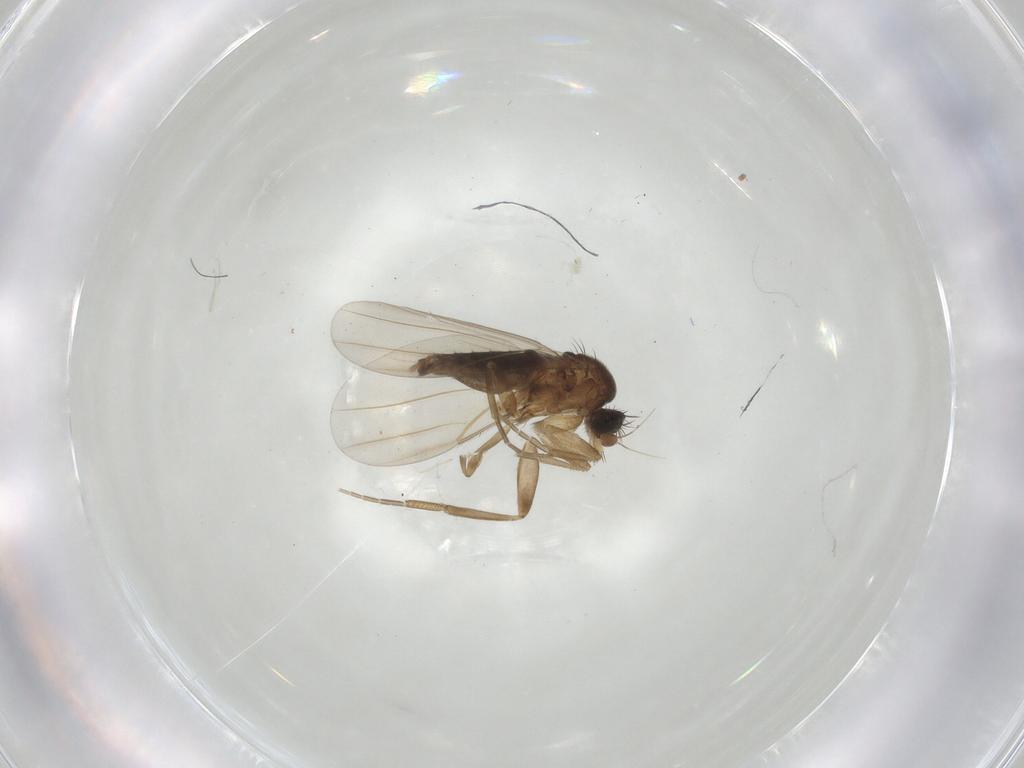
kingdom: Animalia
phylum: Arthropoda
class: Insecta
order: Diptera
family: Phoridae
